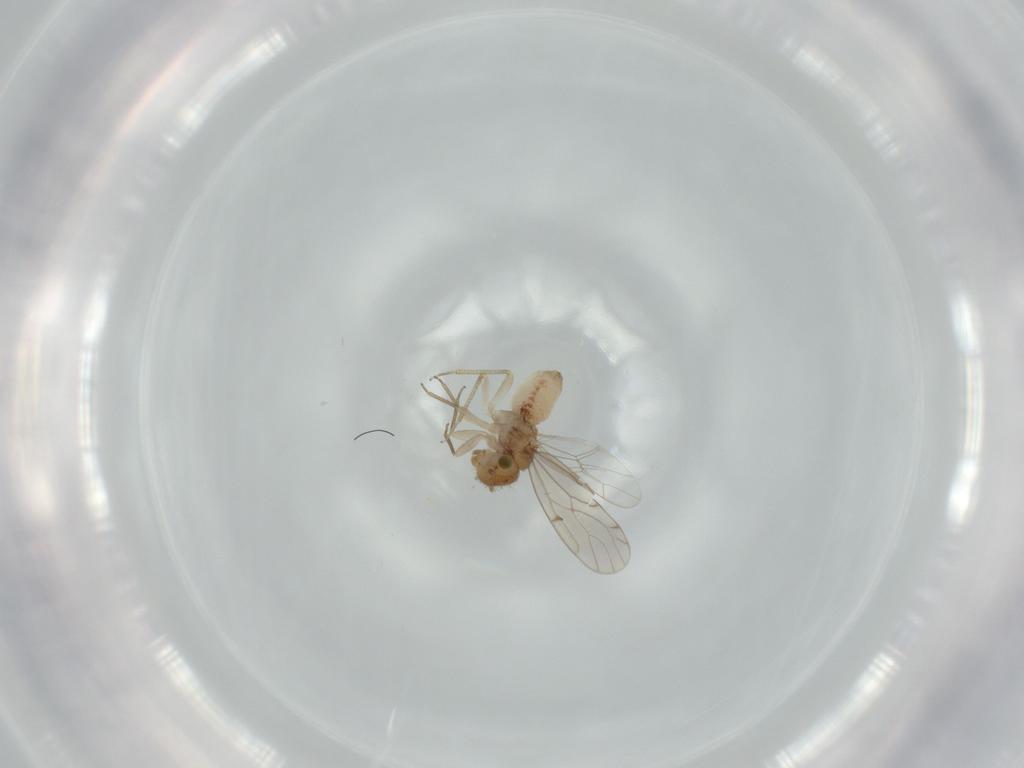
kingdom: Animalia
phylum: Arthropoda
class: Insecta
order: Psocodea
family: Ectopsocidae
